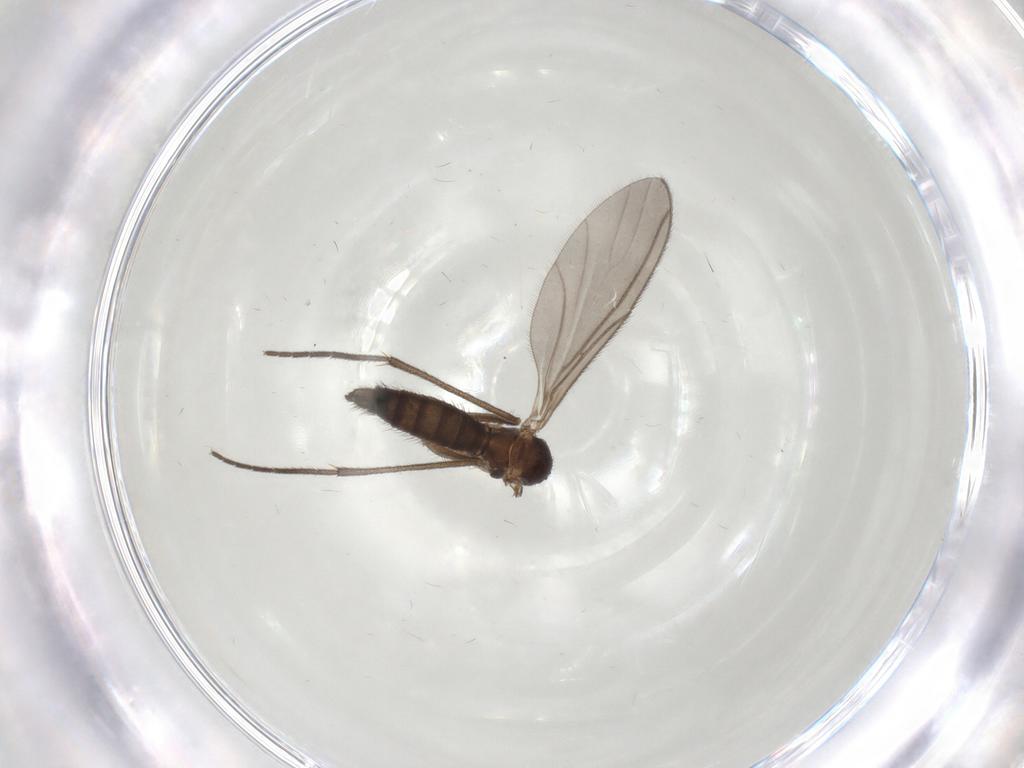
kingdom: Animalia
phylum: Arthropoda
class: Insecta
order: Diptera
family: Sciaridae
